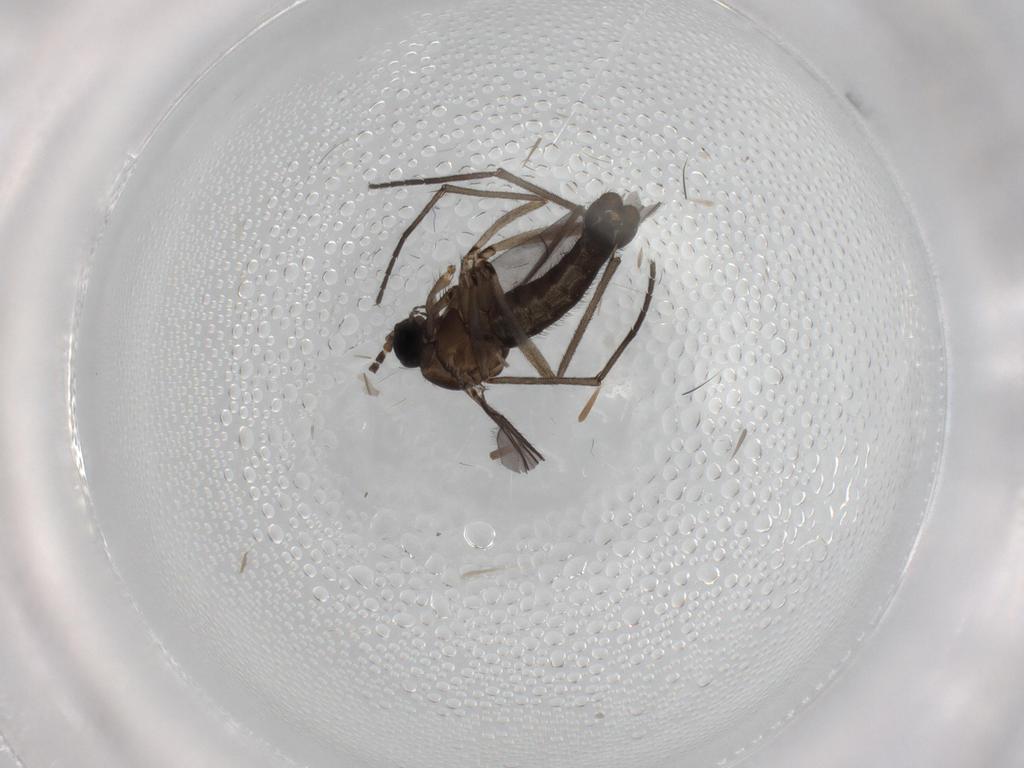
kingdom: Animalia
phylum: Arthropoda
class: Insecta
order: Diptera
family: Sciaridae
